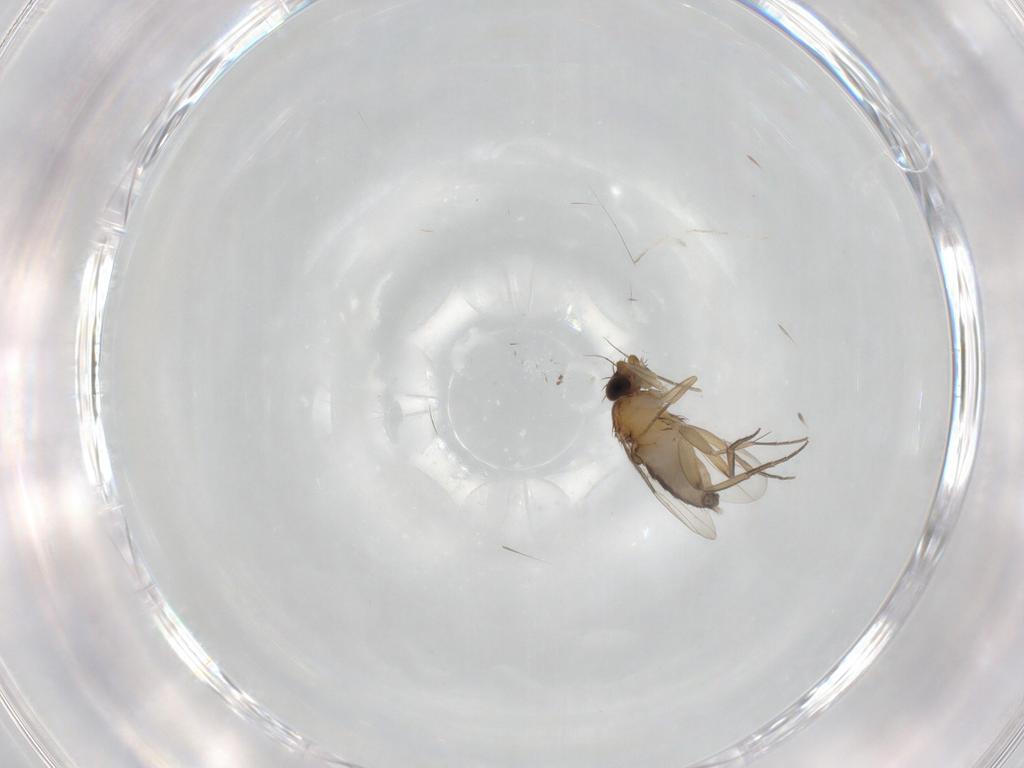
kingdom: Animalia
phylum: Arthropoda
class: Insecta
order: Diptera
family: Phoridae
